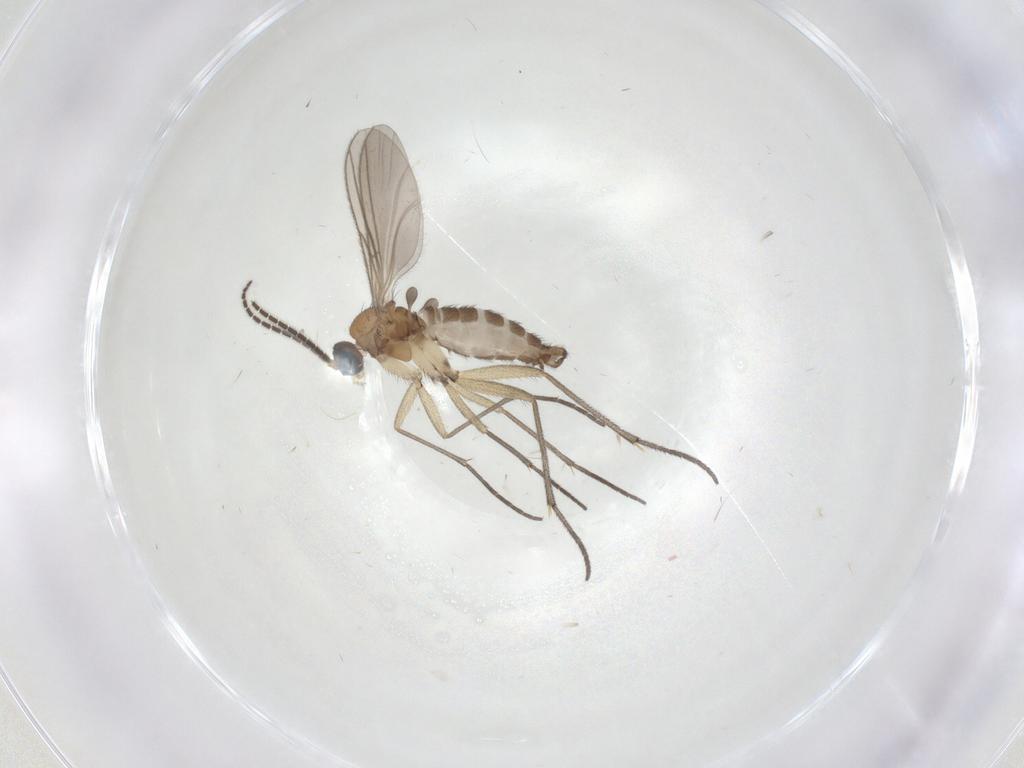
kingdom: Animalia
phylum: Arthropoda
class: Insecta
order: Diptera
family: Sciaridae
